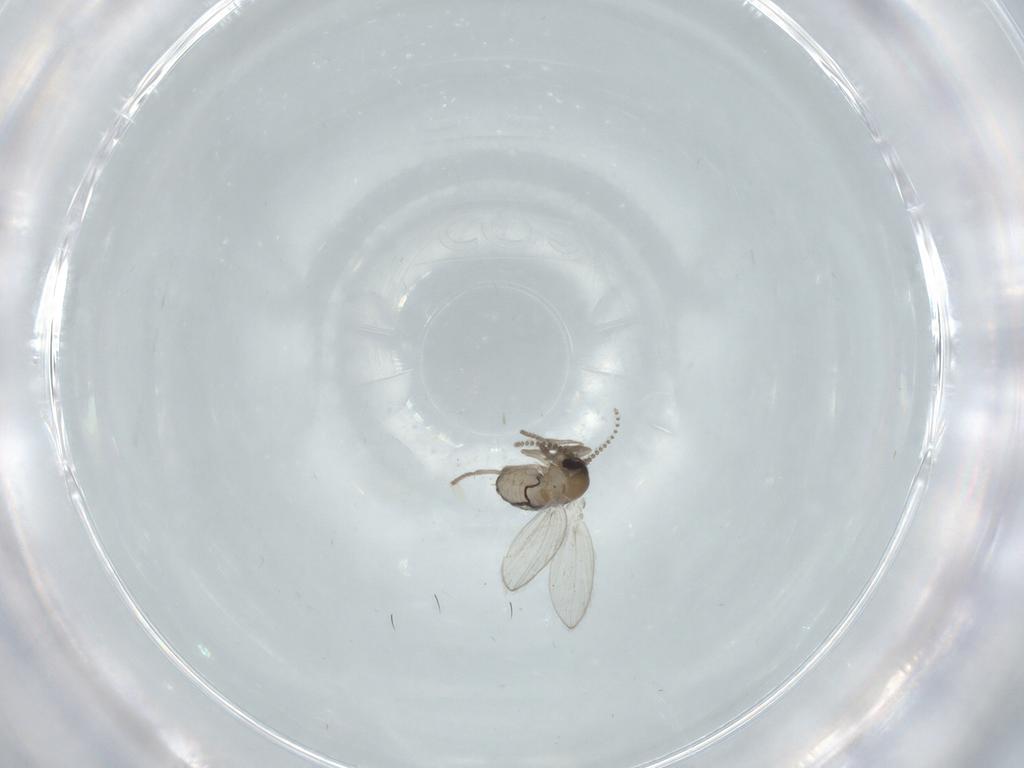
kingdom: Animalia
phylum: Arthropoda
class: Insecta
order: Diptera
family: Psychodidae
